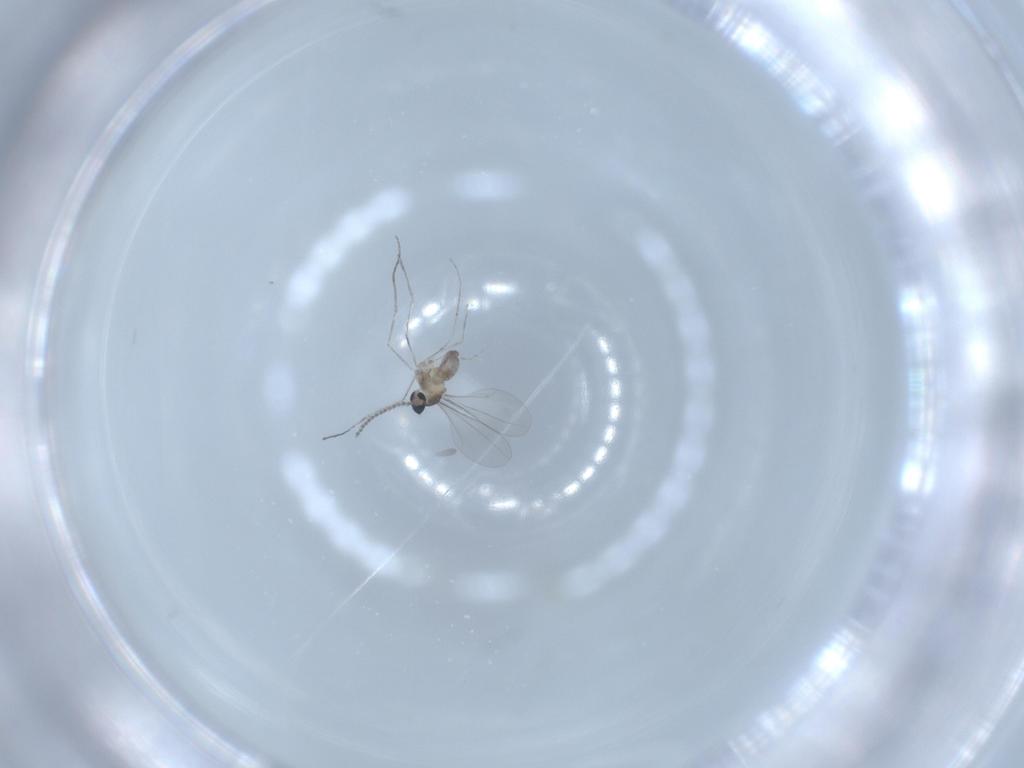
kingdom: Animalia
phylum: Arthropoda
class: Insecta
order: Diptera
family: Cecidomyiidae
